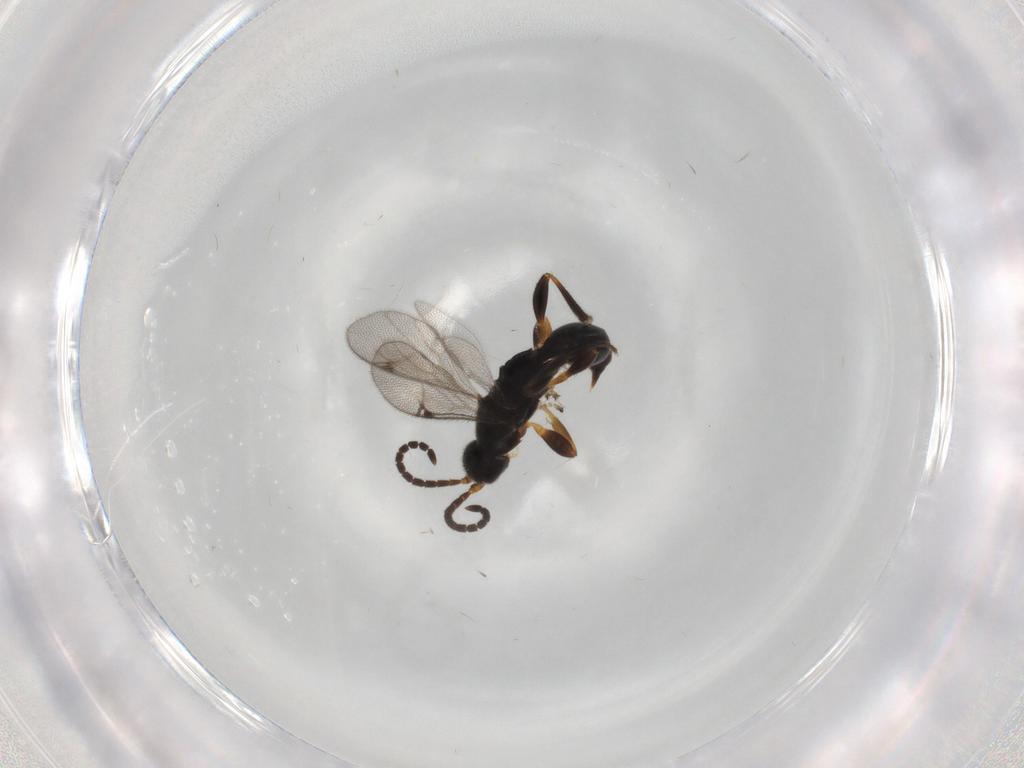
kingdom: Animalia
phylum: Arthropoda
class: Insecta
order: Hymenoptera
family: Proctotrupidae
